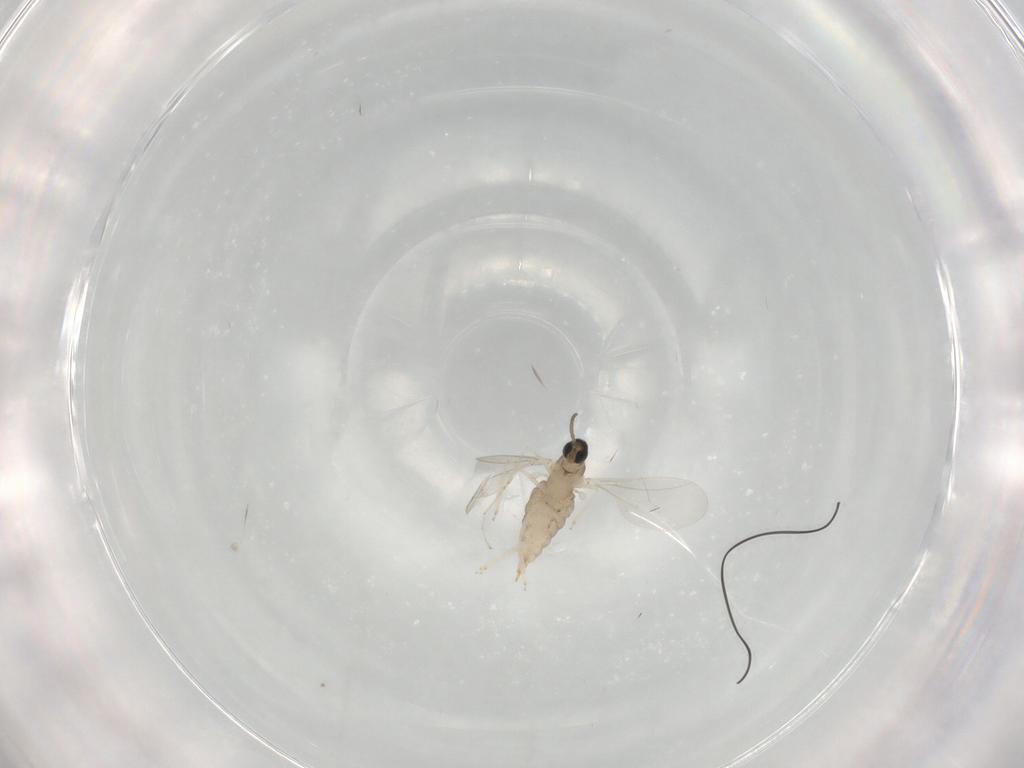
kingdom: Animalia
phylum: Arthropoda
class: Insecta
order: Diptera
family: Cecidomyiidae
